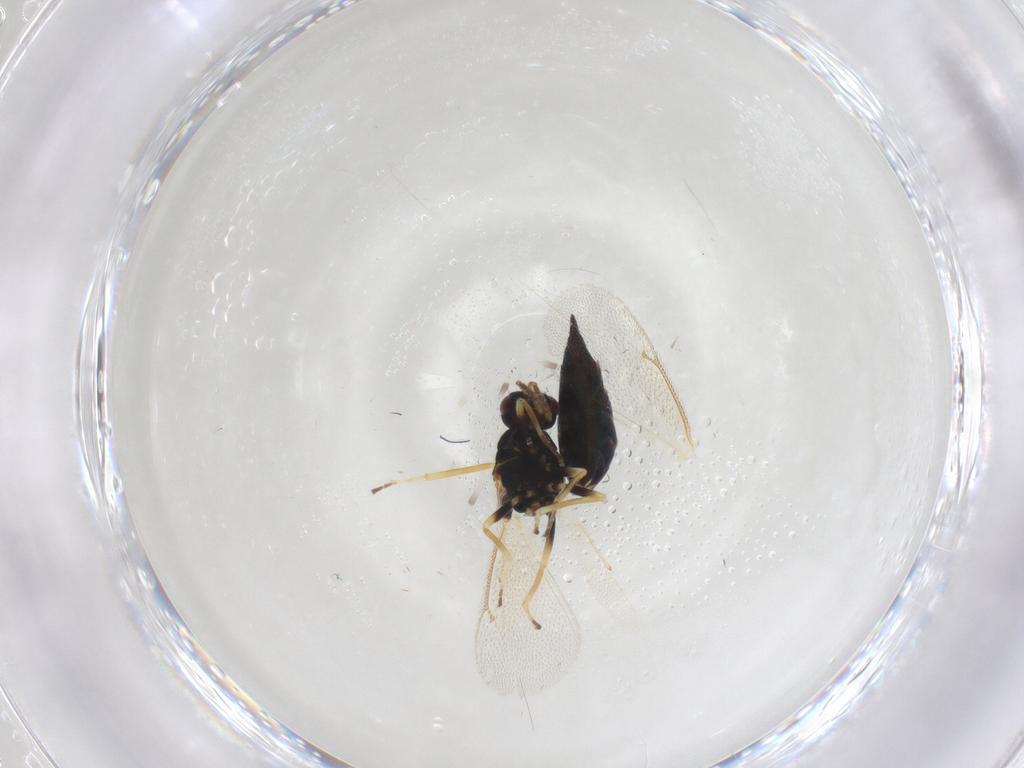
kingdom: Animalia
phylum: Arthropoda
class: Insecta
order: Hymenoptera
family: Eulophidae
